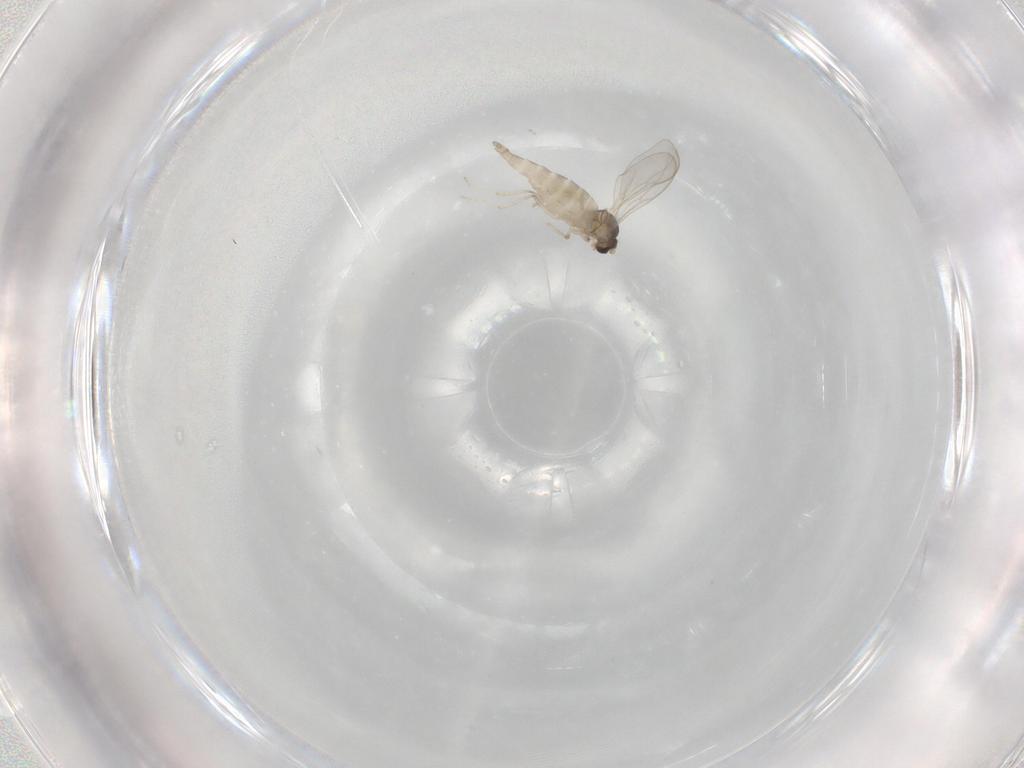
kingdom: Animalia
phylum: Arthropoda
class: Insecta
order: Diptera
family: Cecidomyiidae
